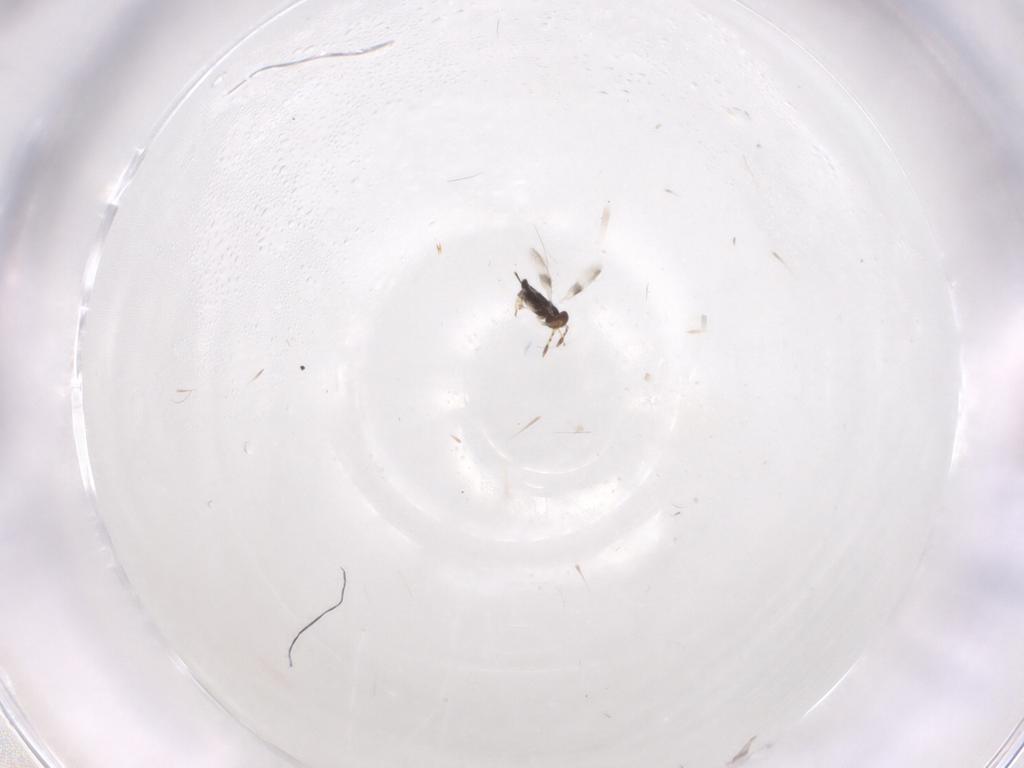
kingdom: Animalia
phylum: Arthropoda
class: Insecta
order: Hymenoptera
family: Azotidae
